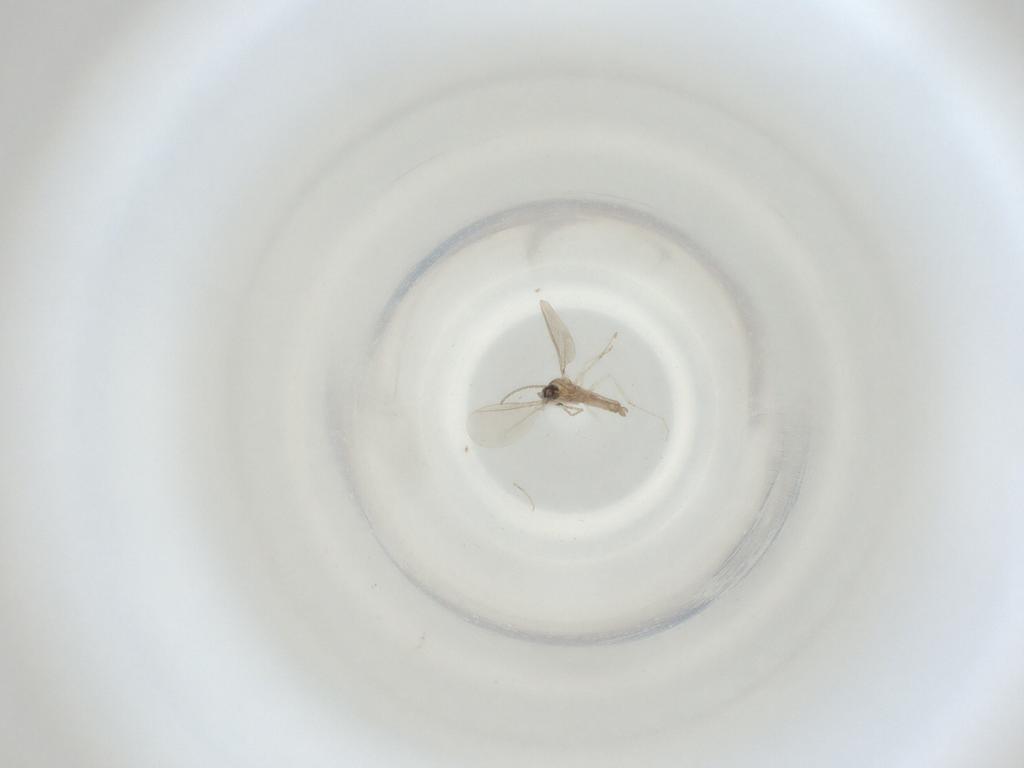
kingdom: Animalia
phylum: Arthropoda
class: Insecta
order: Diptera
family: Cecidomyiidae
